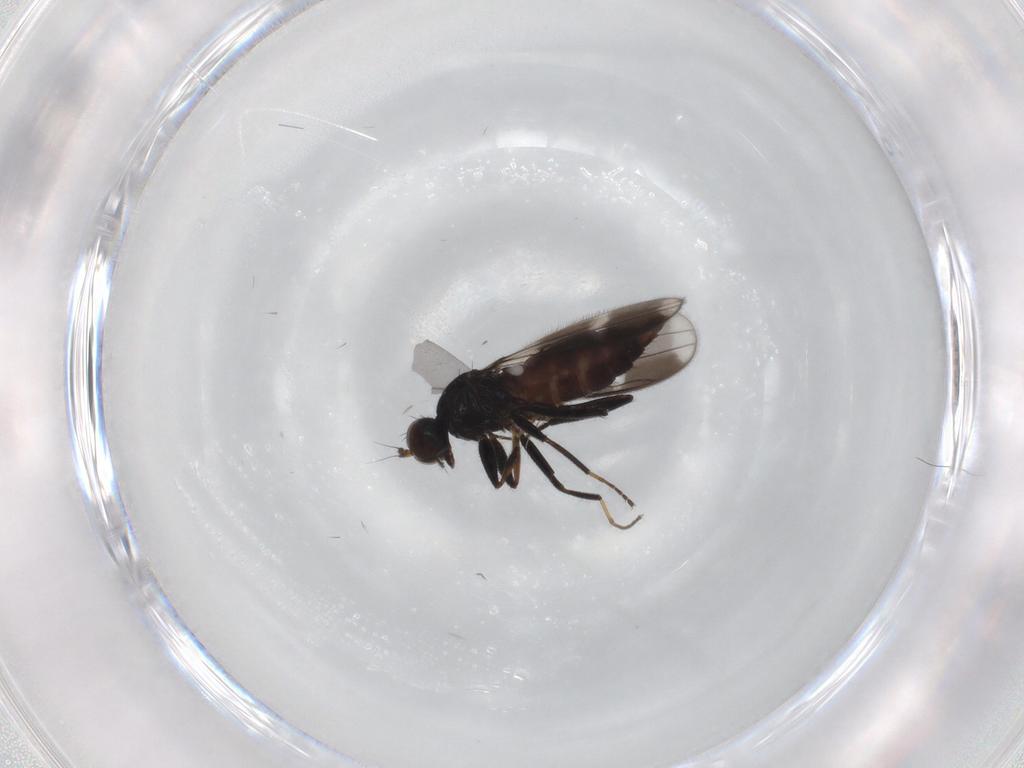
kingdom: Animalia
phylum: Arthropoda
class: Insecta
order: Diptera
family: Hybotidae
